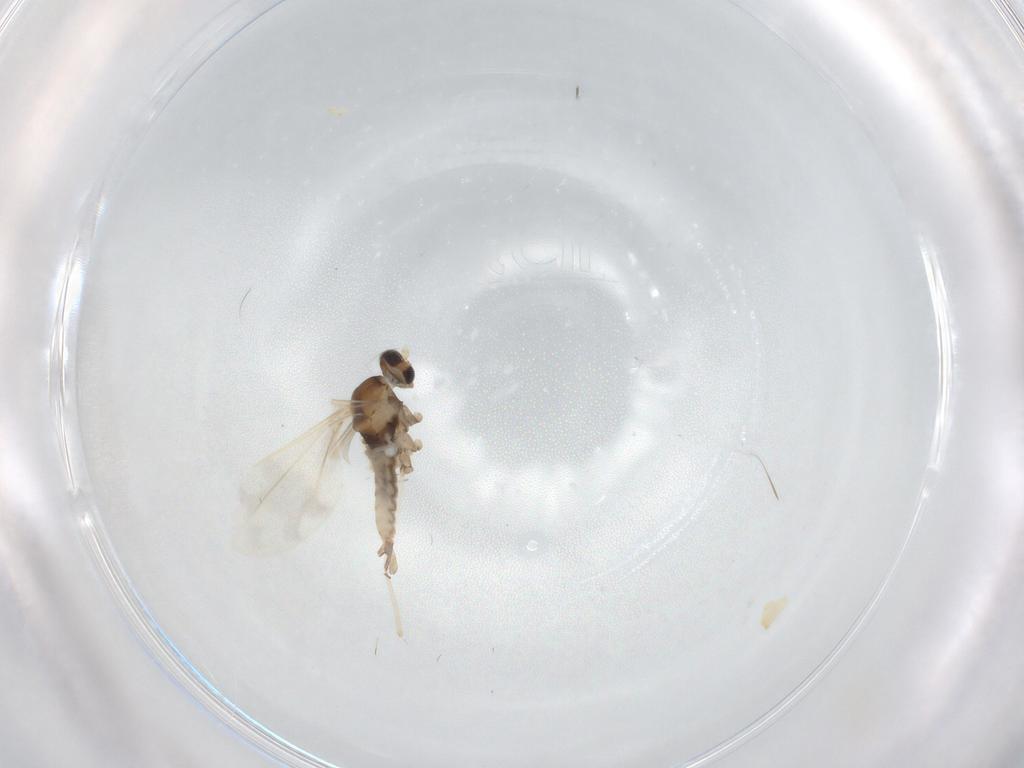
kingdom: Animalia
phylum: Arthropoda
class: Insecta
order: Diptera
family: Cecidomyiidae
